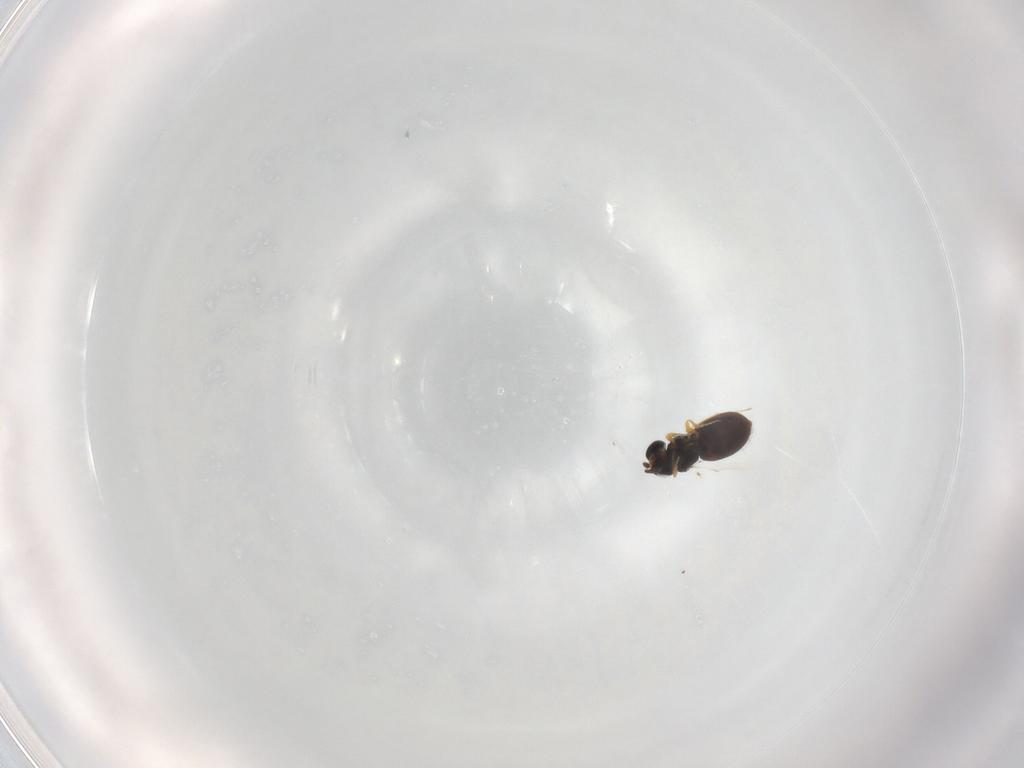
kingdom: Animalia
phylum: Arthropoda
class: Insecta
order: Hymenoptera
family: Scelionidae
